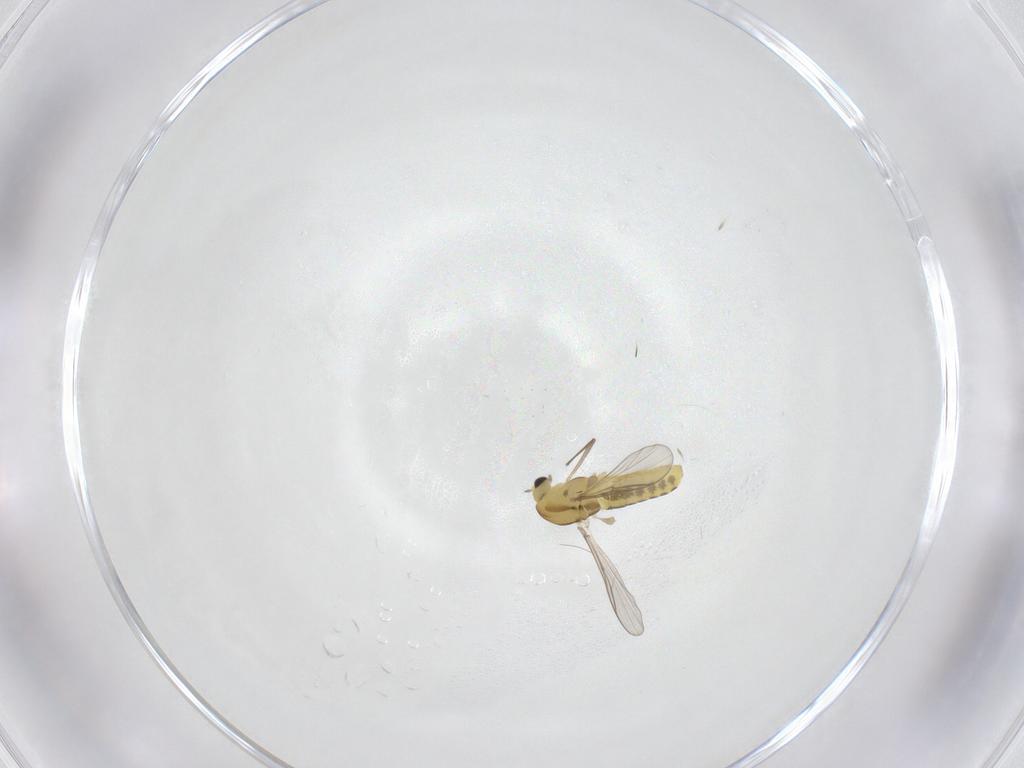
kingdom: Animalia
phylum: Arthropoda
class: Insecta
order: Diptera
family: Chironomidae
